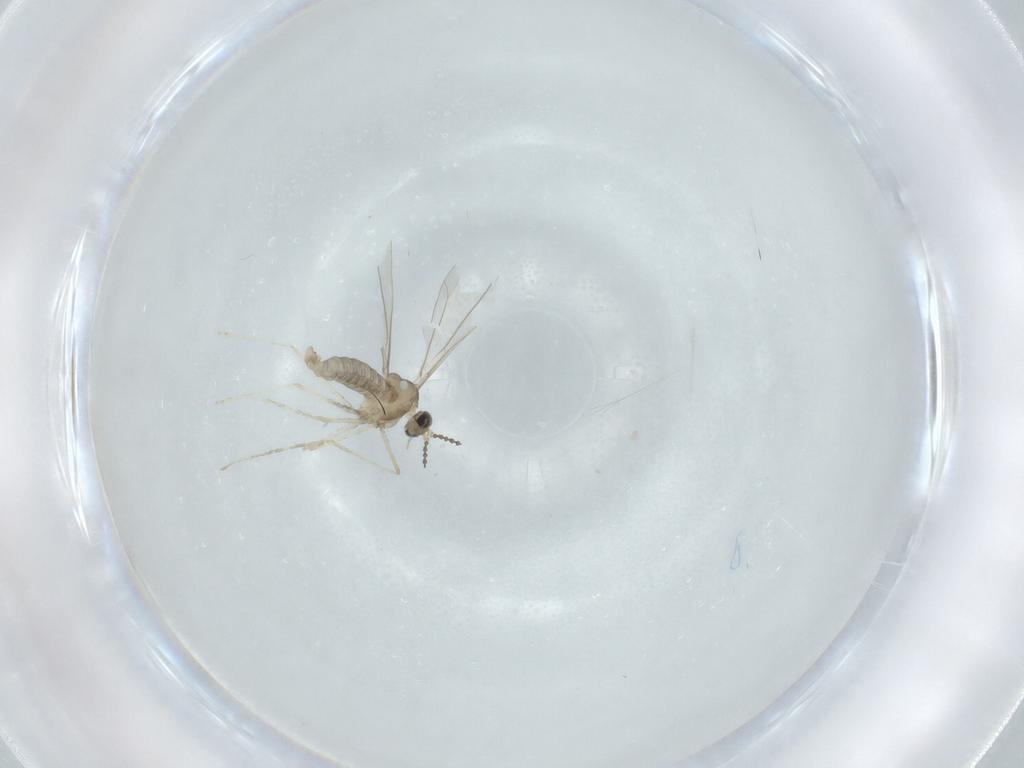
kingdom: Animalia
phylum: Arthropoda
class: Insecta
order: Diptera
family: Cecidomyiidae
